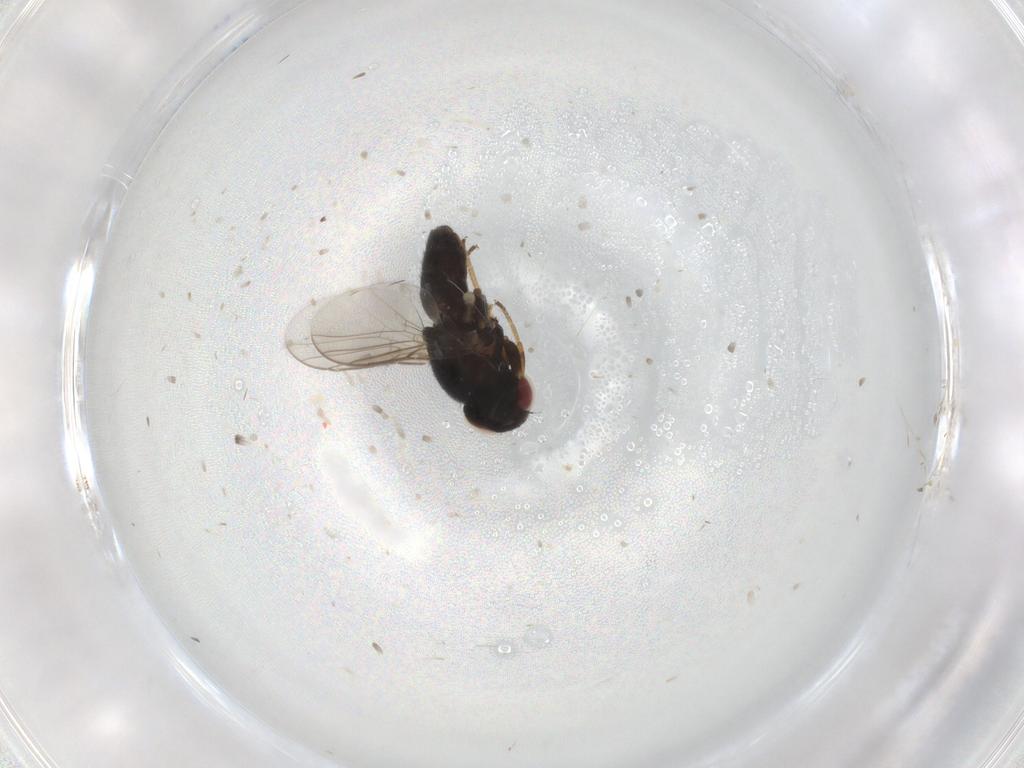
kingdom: Animalia
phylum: Arthropoda
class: Insecta
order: Diptera
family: Chloropidae
